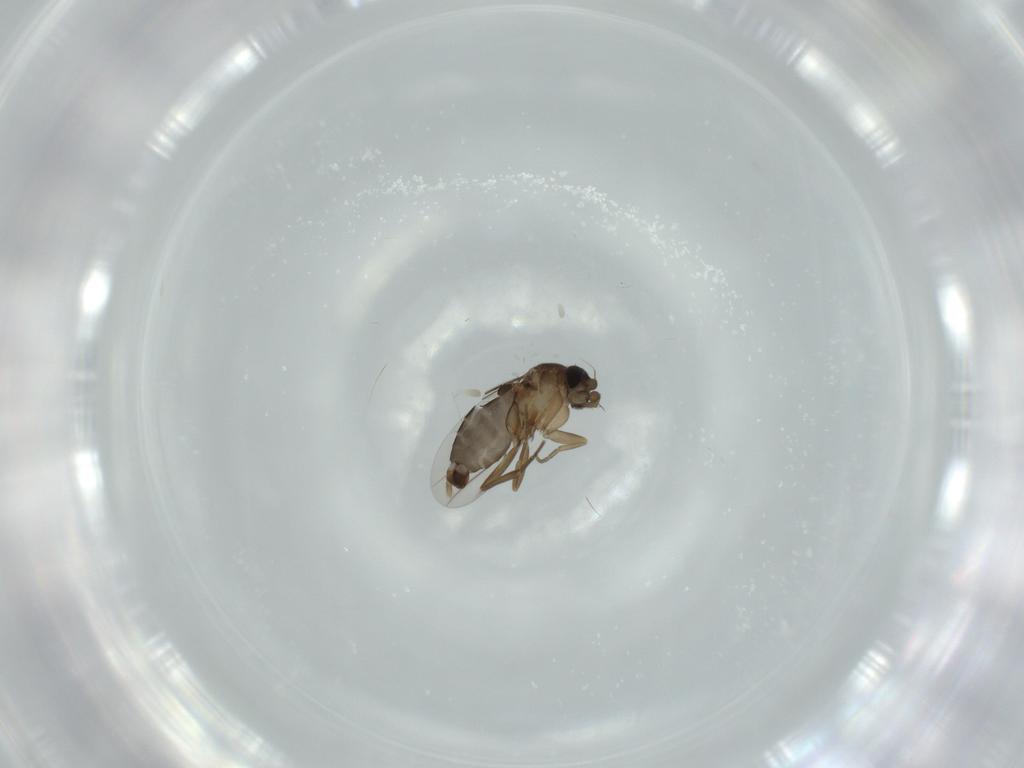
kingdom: Animalia
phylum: Arthropoda
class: Insecta
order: Diptera
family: Phoridae
